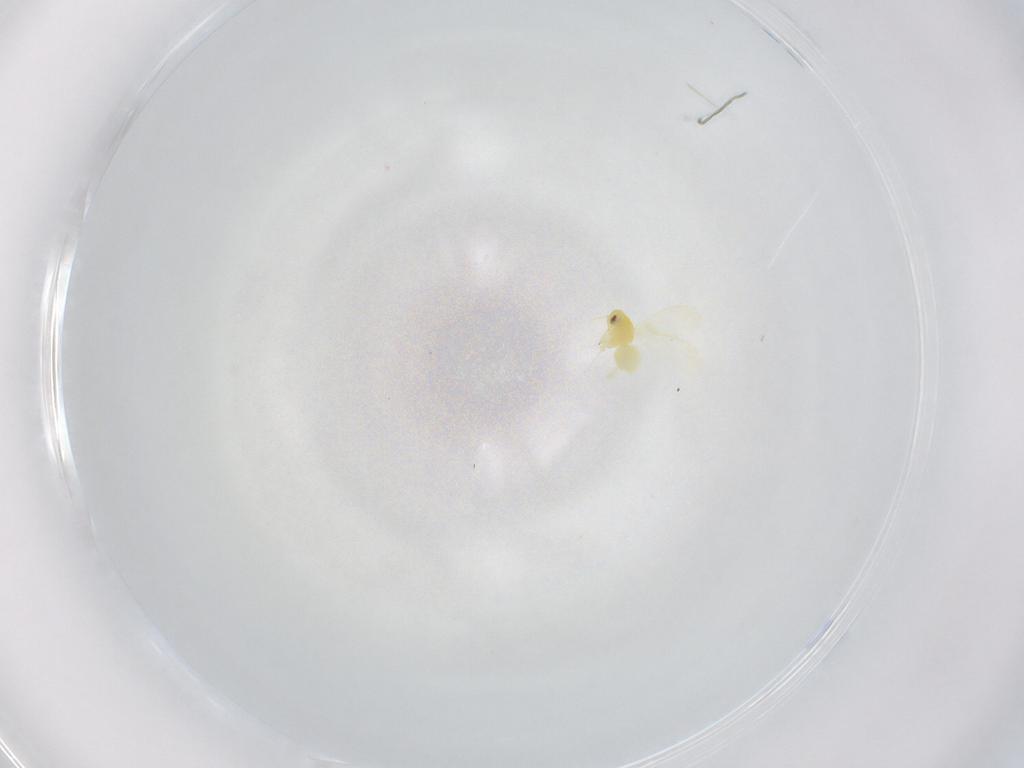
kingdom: Animalia
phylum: Arthropoda
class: Insecta
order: Hemiptera
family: Aleyrodidae
